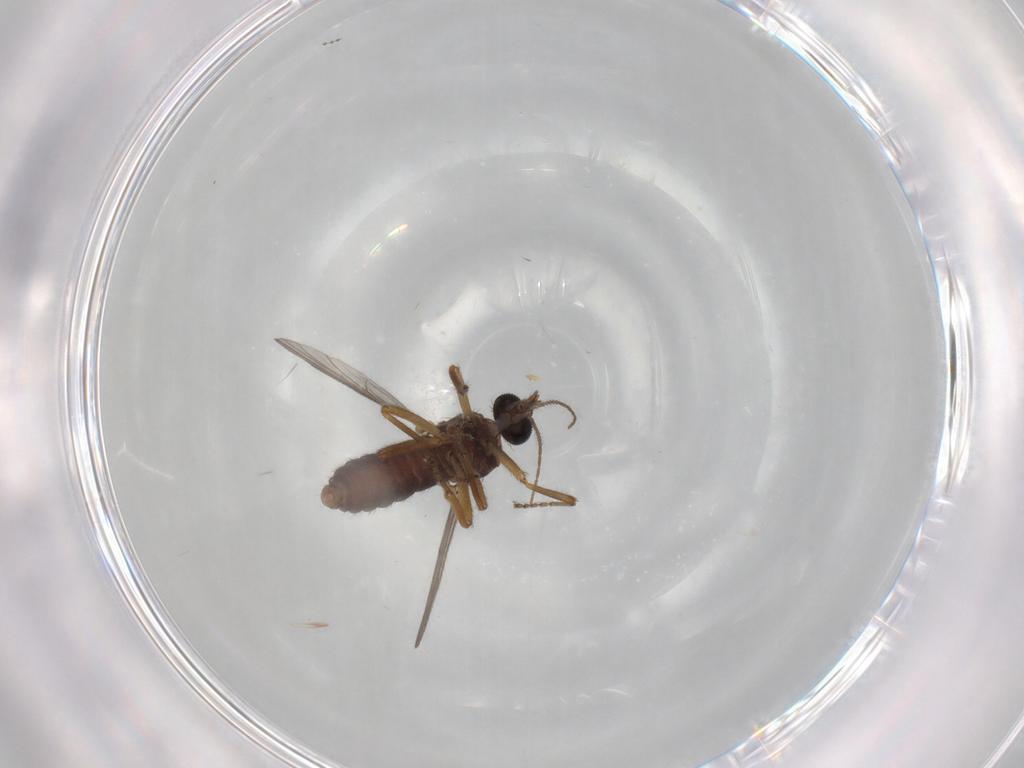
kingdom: Animalia
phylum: Arthropoda
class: Insecta
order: Diptera
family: Ceratopogonidae
